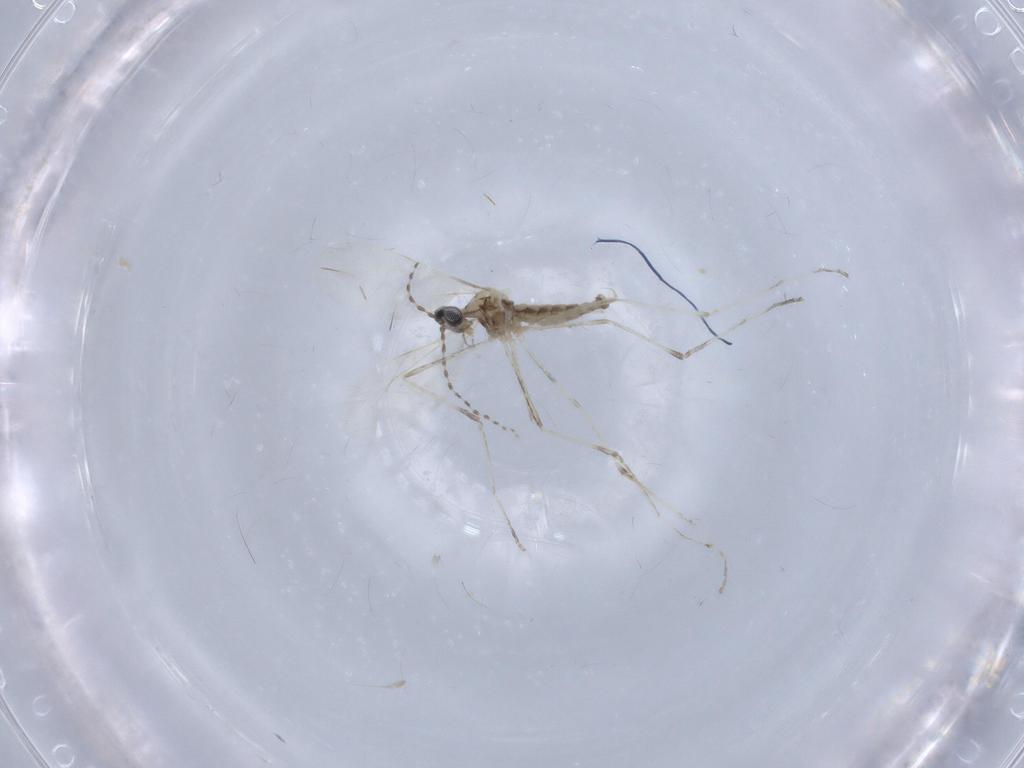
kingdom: Animalia
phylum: Arthropoda
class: Insecta
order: Diptera
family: Cecidomyiidae
